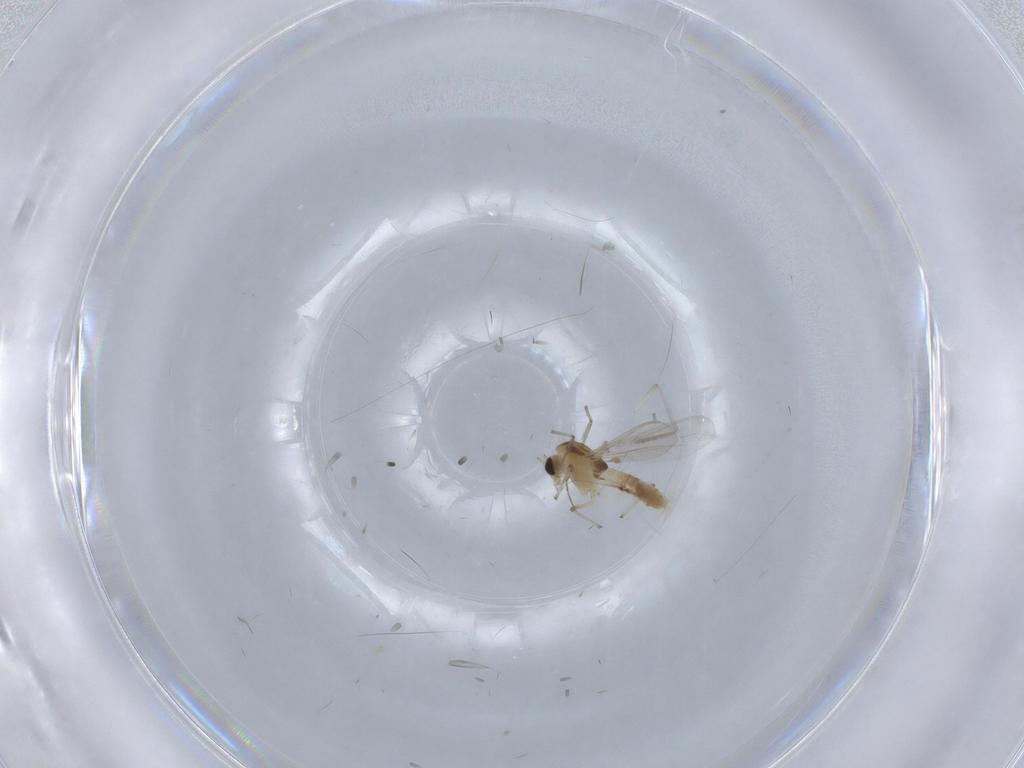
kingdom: Animalia
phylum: Arthropoda
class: Insecta
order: Diptera
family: Chironomidae
